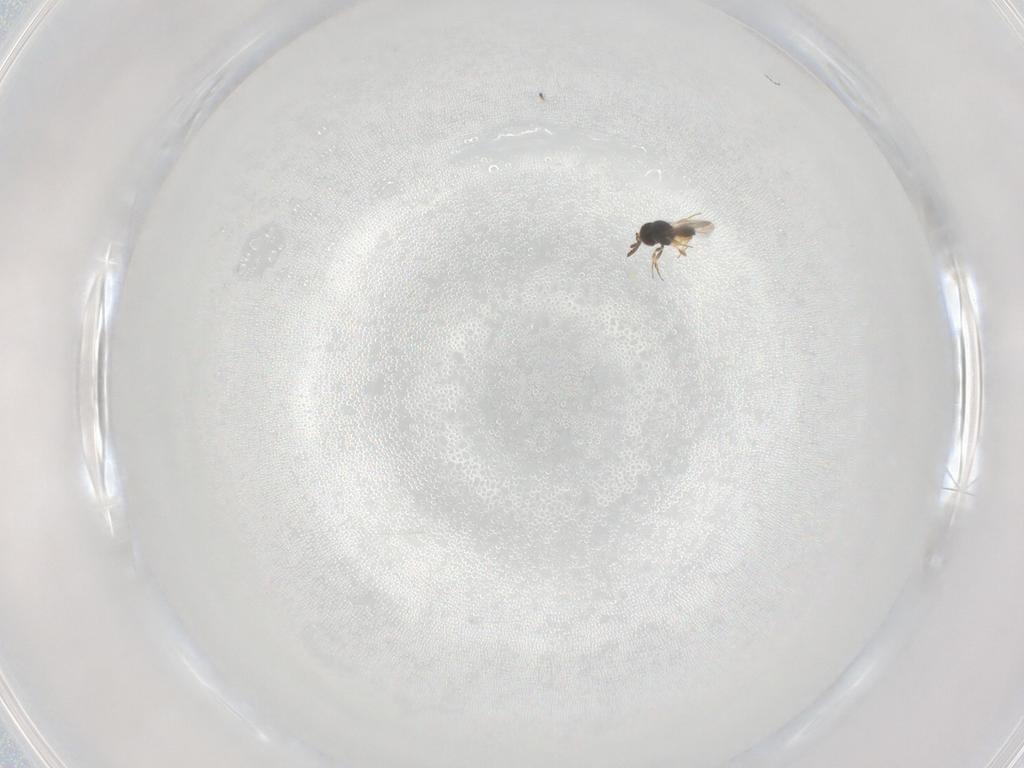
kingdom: Animalia
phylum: Arthropoda
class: Insecta
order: Hymenoptera
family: Scelionidae
